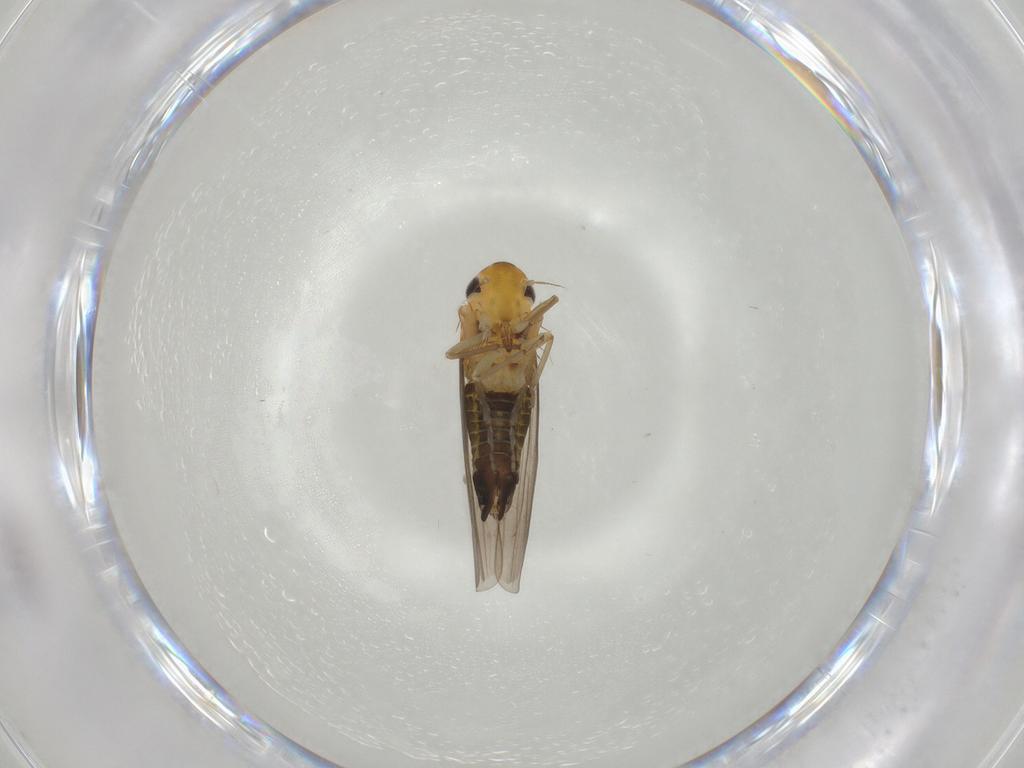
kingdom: Animalia
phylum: Arthropoda
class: Insecta
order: Hemiptera
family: Cicadellidae
